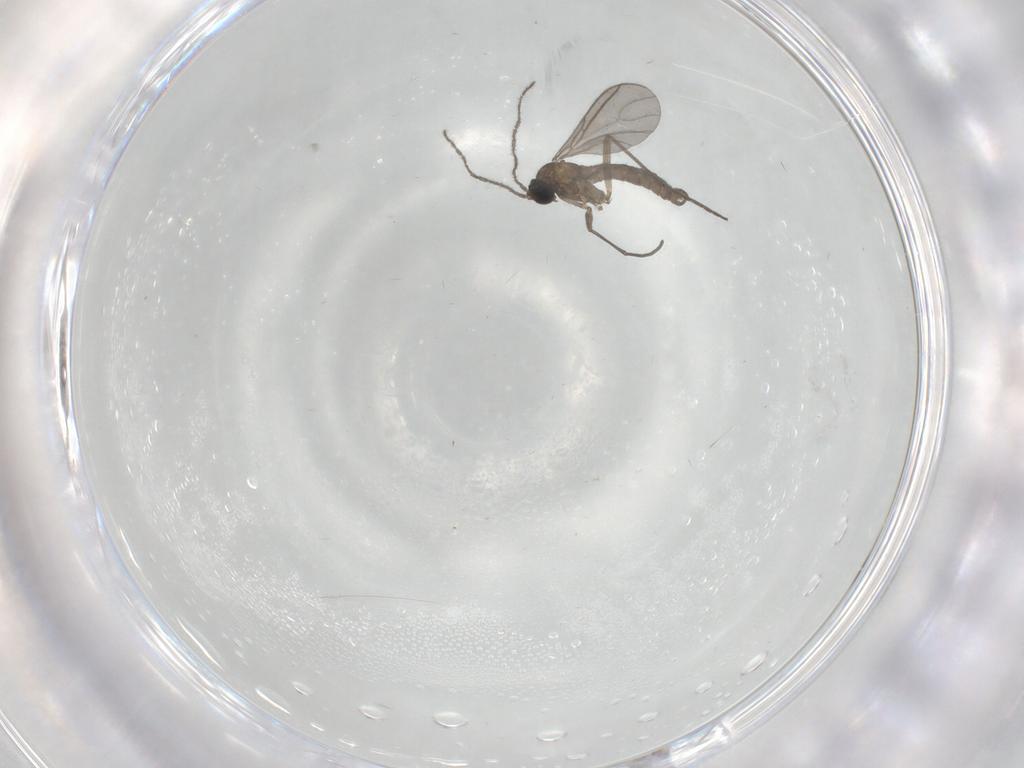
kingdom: Animalia
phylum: Arthropoda
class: Insecta
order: Diptera
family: Sciaridae
